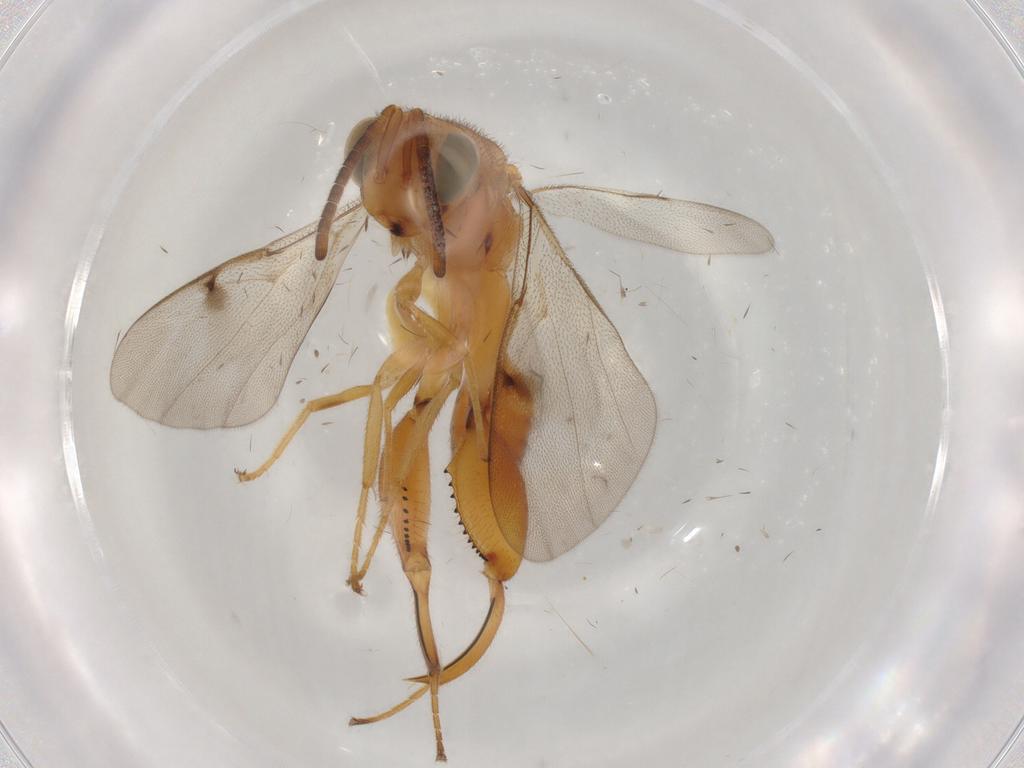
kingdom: Animalia
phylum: Arthropoda
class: Insecta
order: Hymenoptera
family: Chalcididae
